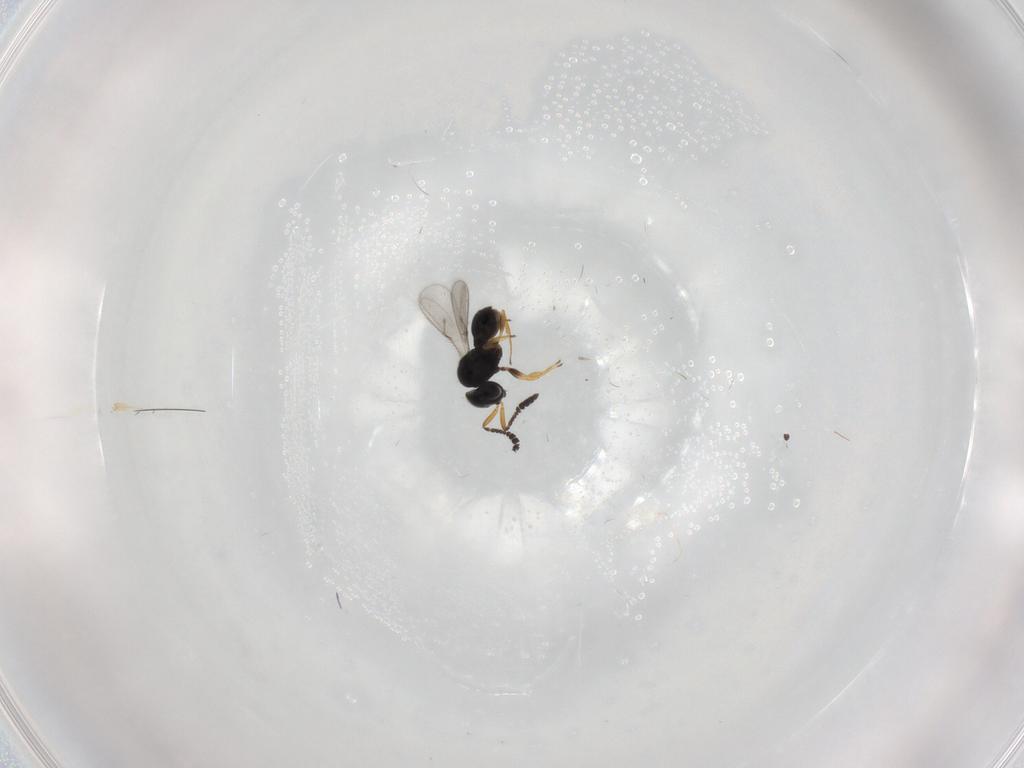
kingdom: Animalia
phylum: Arthropoda
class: Insecta
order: Hymenoptera
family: Scelionidae
